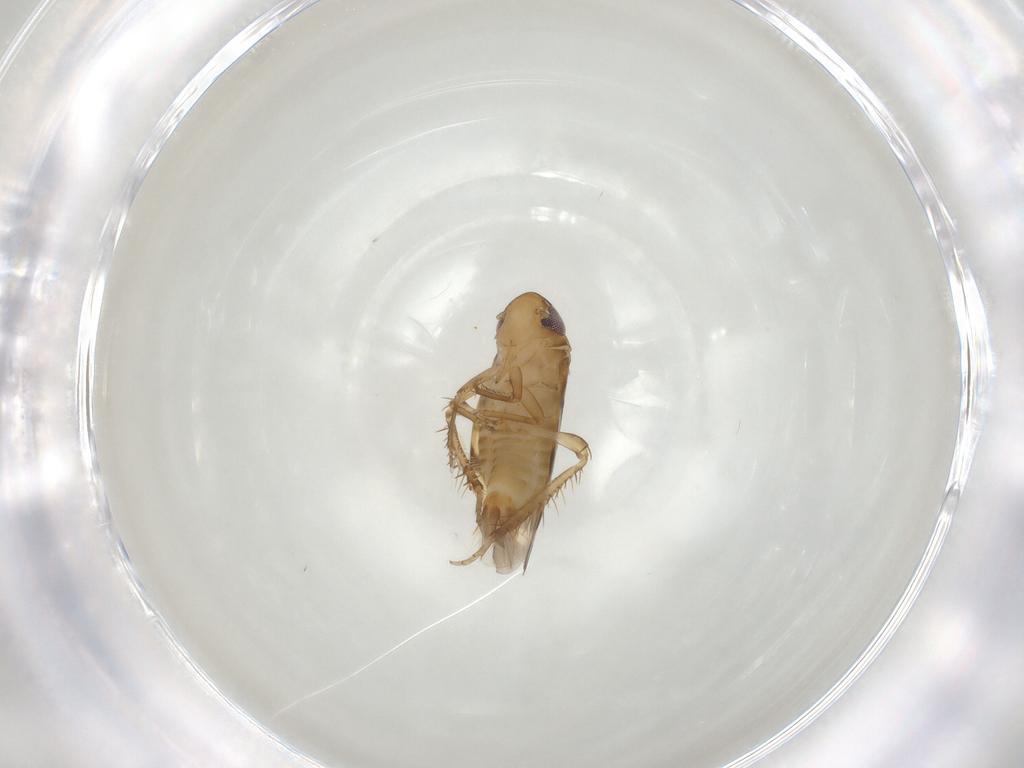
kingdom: Animalia
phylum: Arthropoda
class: Insecta
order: Hemiptera
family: Cicadellidae
